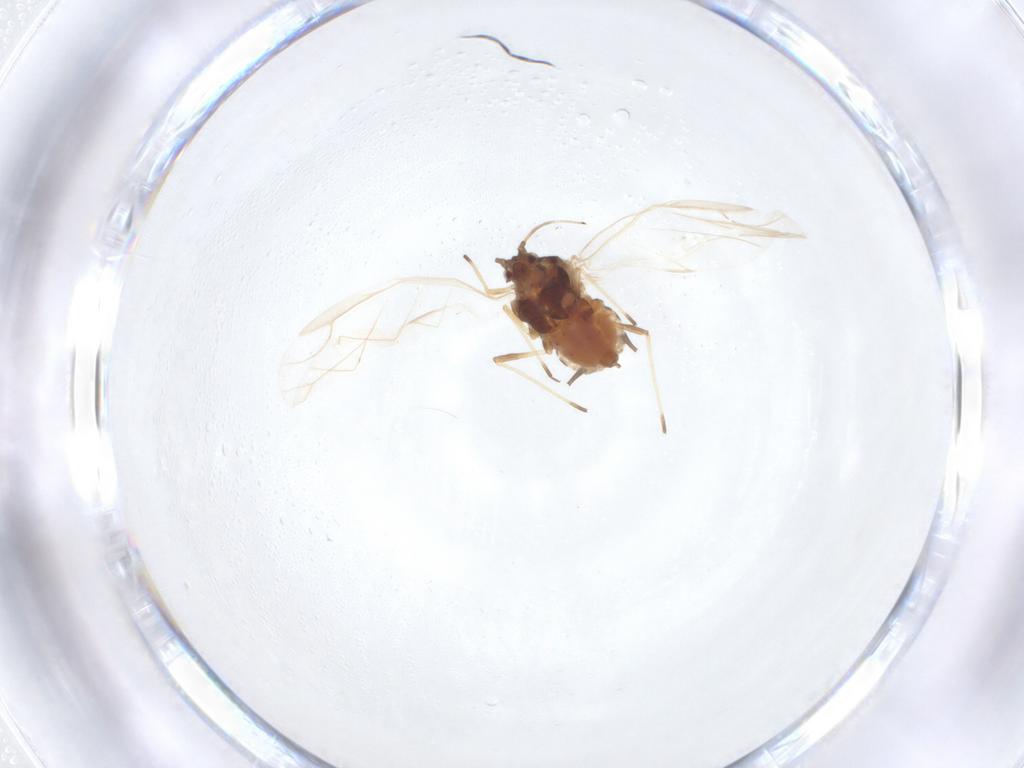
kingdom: Animalia
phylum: Arthropoda
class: Insecta
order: Hemiptera
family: Aphididae
